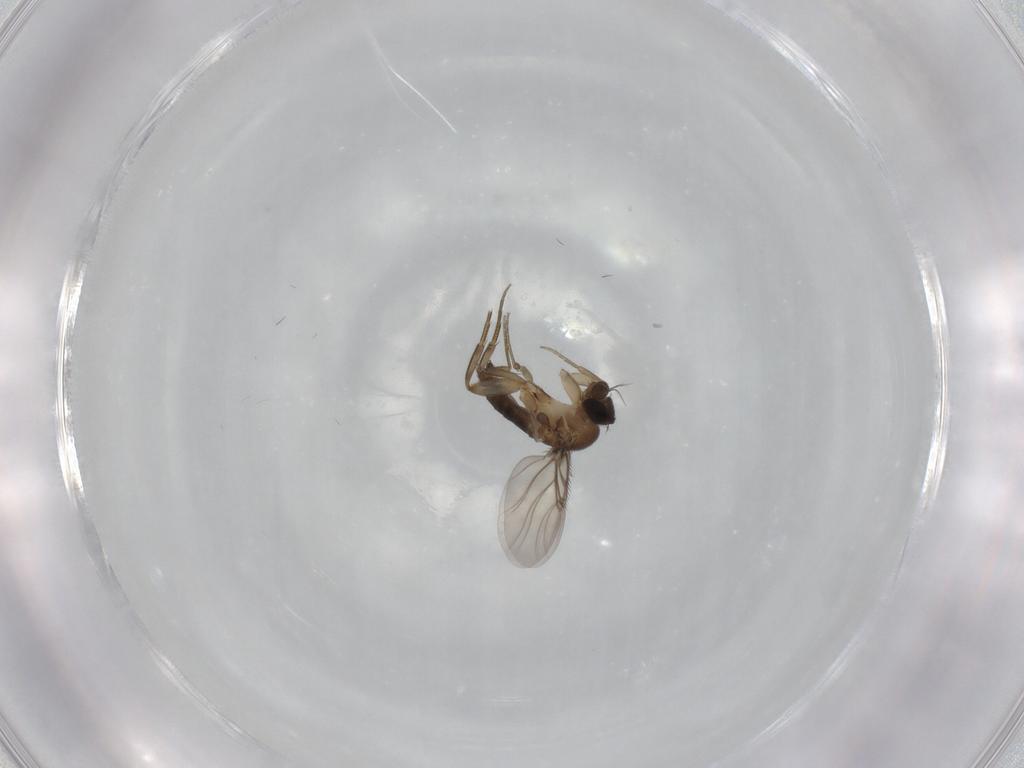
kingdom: Animalia
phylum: Arthropoda
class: Insecta
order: Diptera
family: Phoridae
